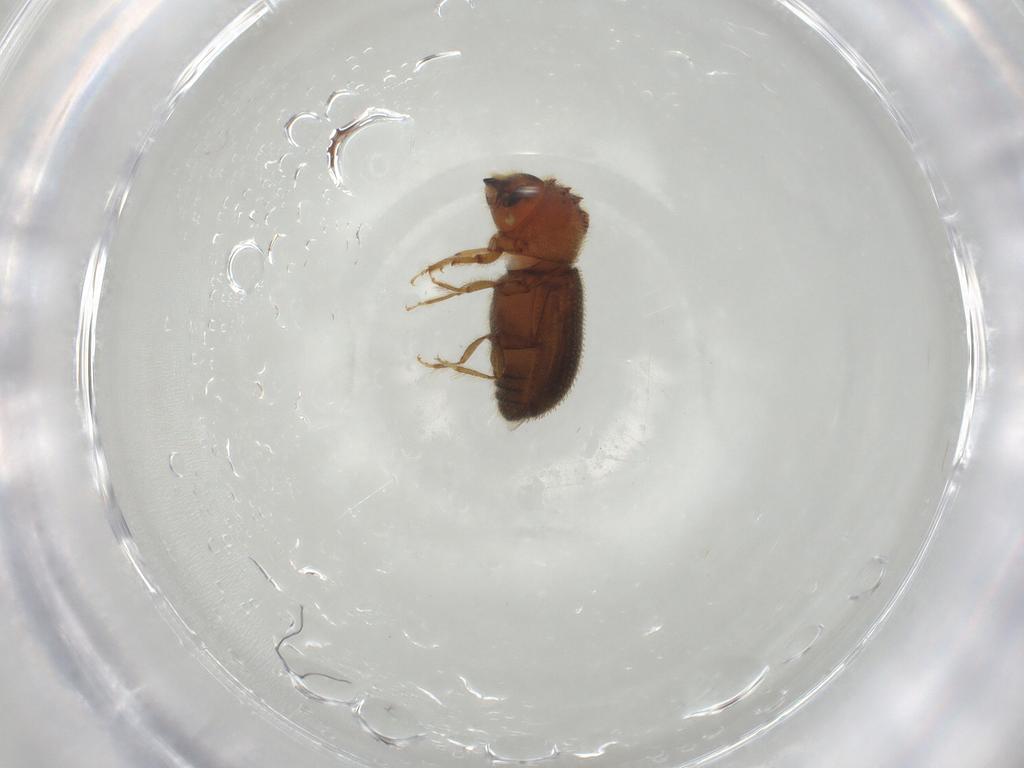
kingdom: Animalia
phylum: Arthropoda
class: Insecta
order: Coleoptera
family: Curculionidae
